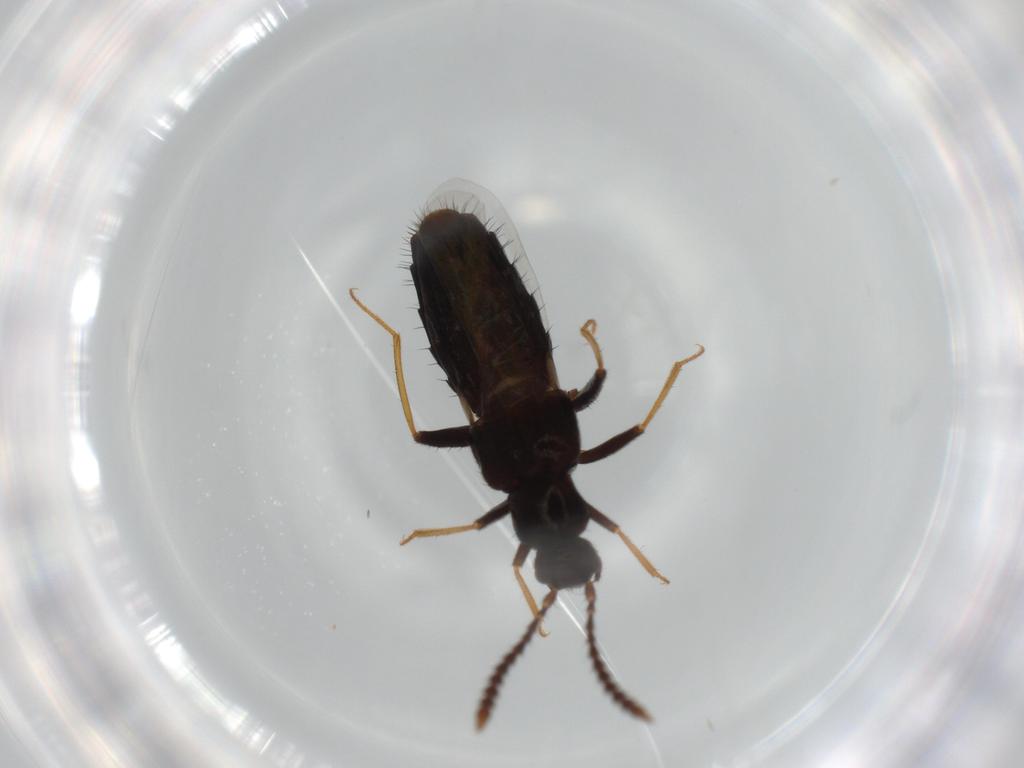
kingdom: Animalia
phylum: Arthropoda
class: Insecta
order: Coleoptera
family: Staphylinidae
